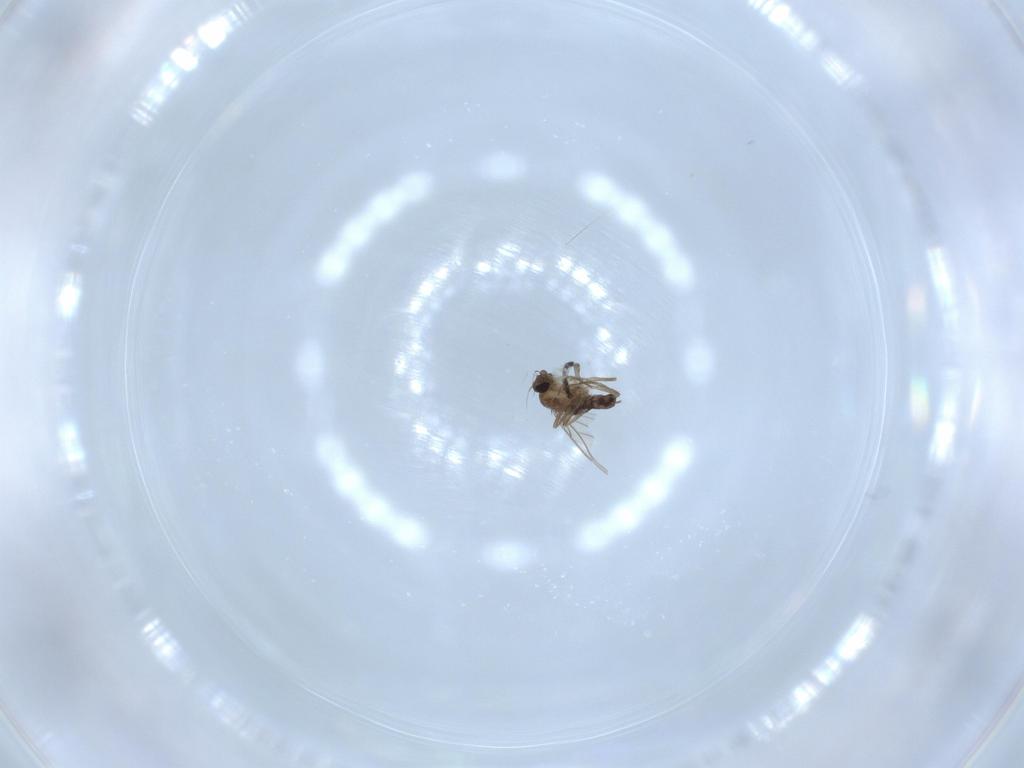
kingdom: Animalia
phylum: Arthropoda
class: Insecta
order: Diptera
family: Phoridae
